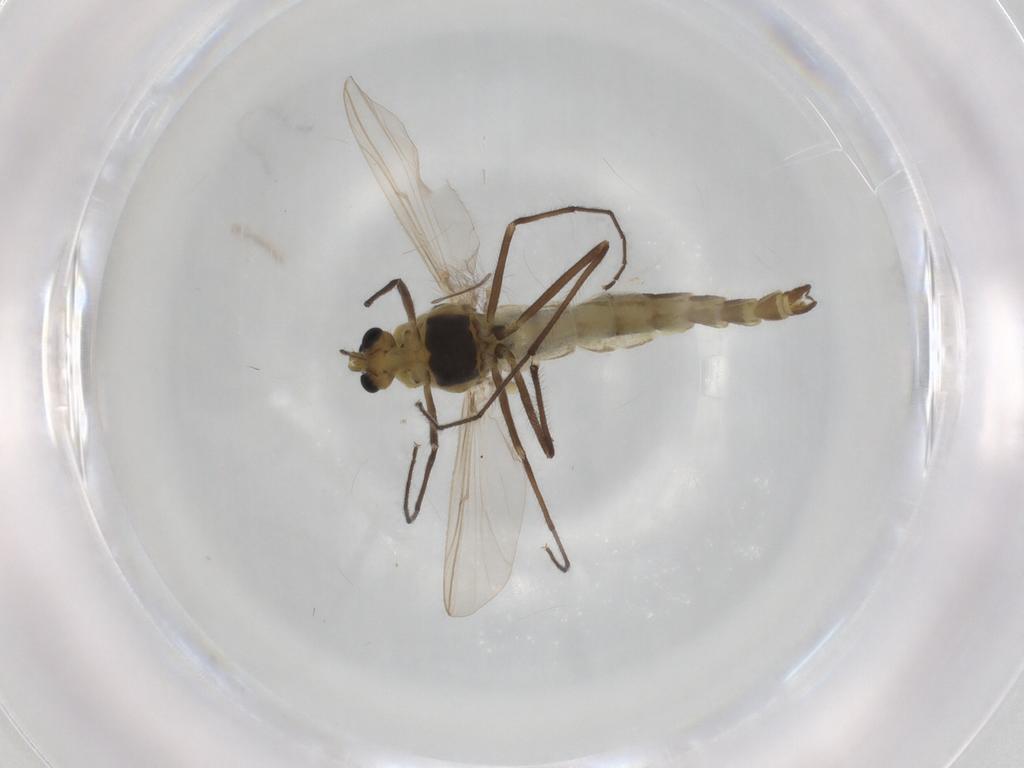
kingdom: Animalia
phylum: Arthropoda
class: Insecta
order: Diptera
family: Chironomidae
